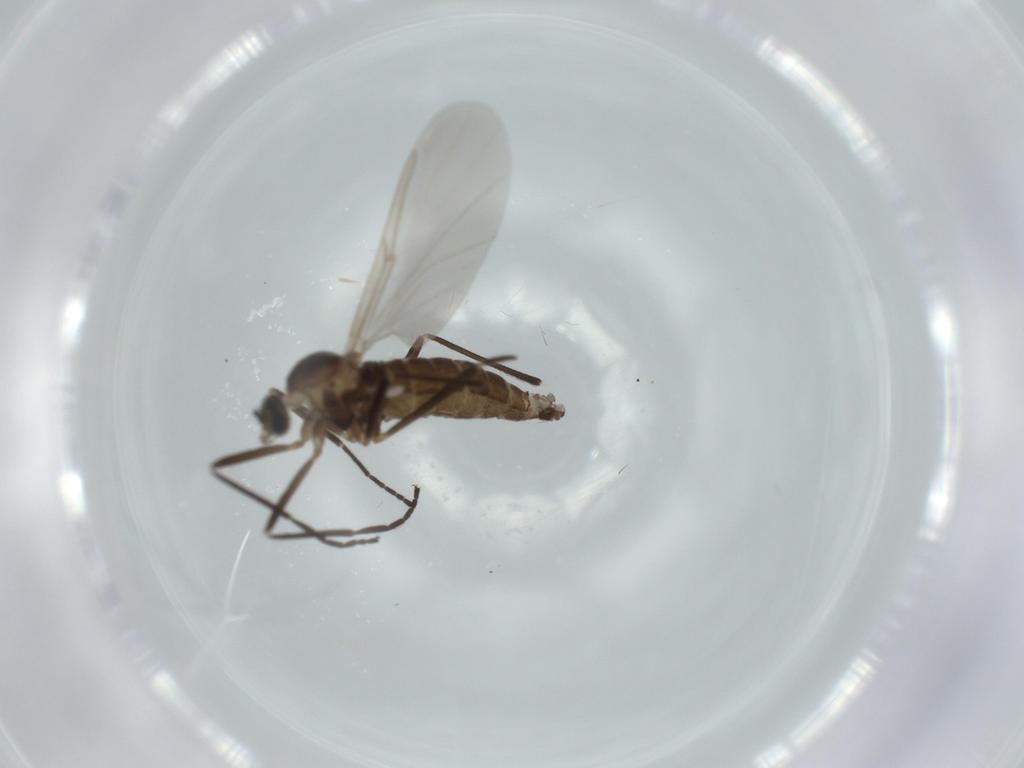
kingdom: Animalia
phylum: Arthropoda
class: Insecta
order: Diptera
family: Cecidomyiidae
